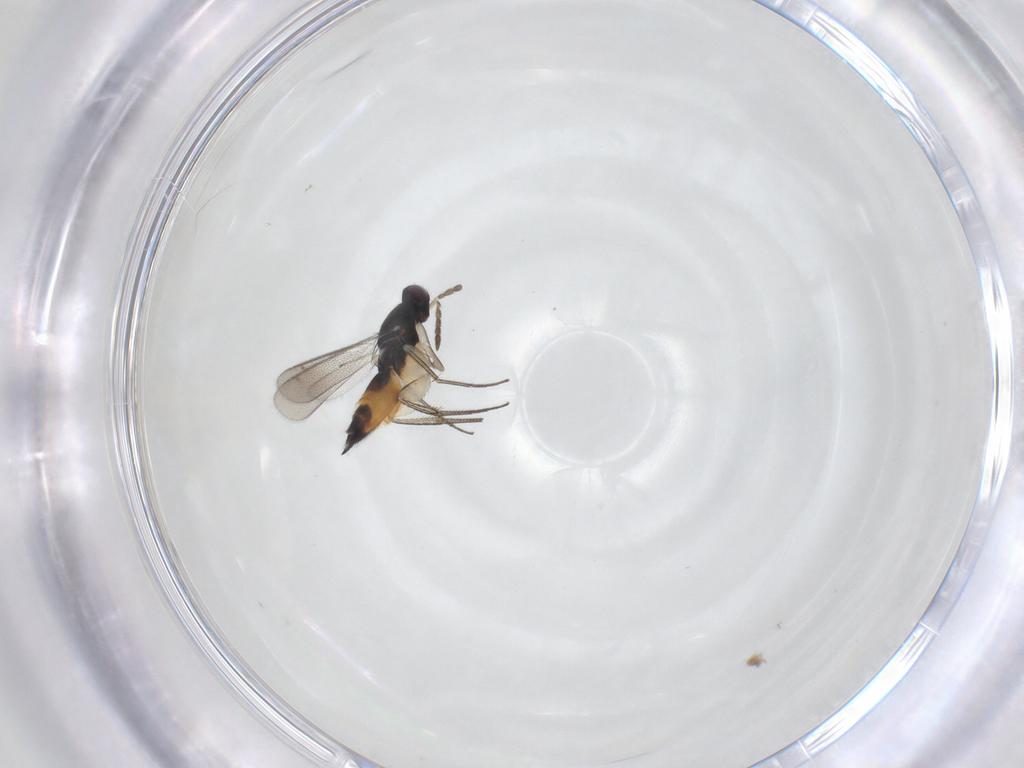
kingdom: Animalia
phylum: Arthropoda
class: Insecta
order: Hymenoptera
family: Eulophidae
